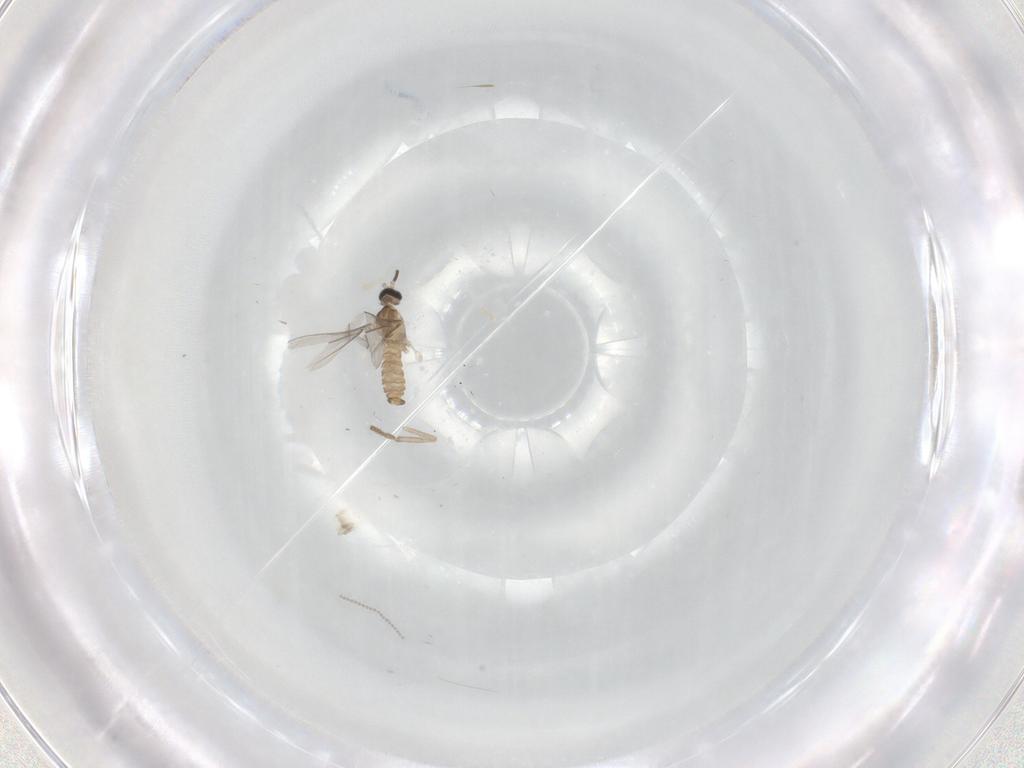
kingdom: Animalia
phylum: Arthropoda
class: Insecta
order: Diptera
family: Cecidomyiidae
